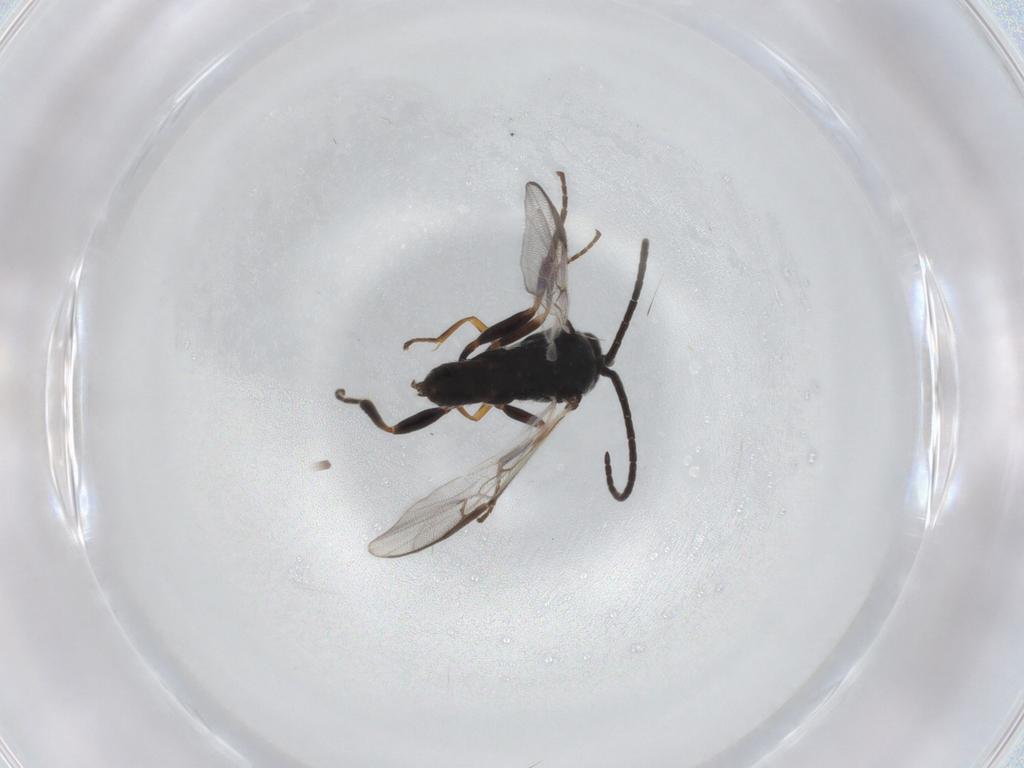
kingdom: Animalia
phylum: Arthropoda
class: Insecta
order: Hymenoptera
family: Braconidae
